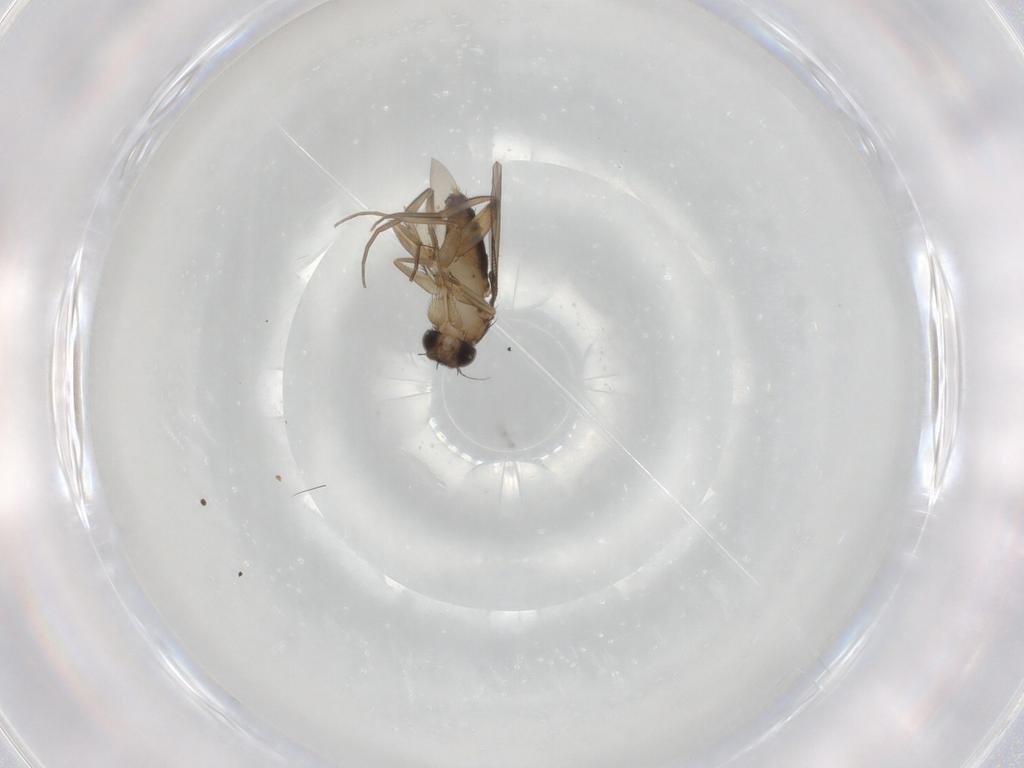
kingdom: Animalia
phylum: Arthropoda
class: Insecta
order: Diptera
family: Phoridae
